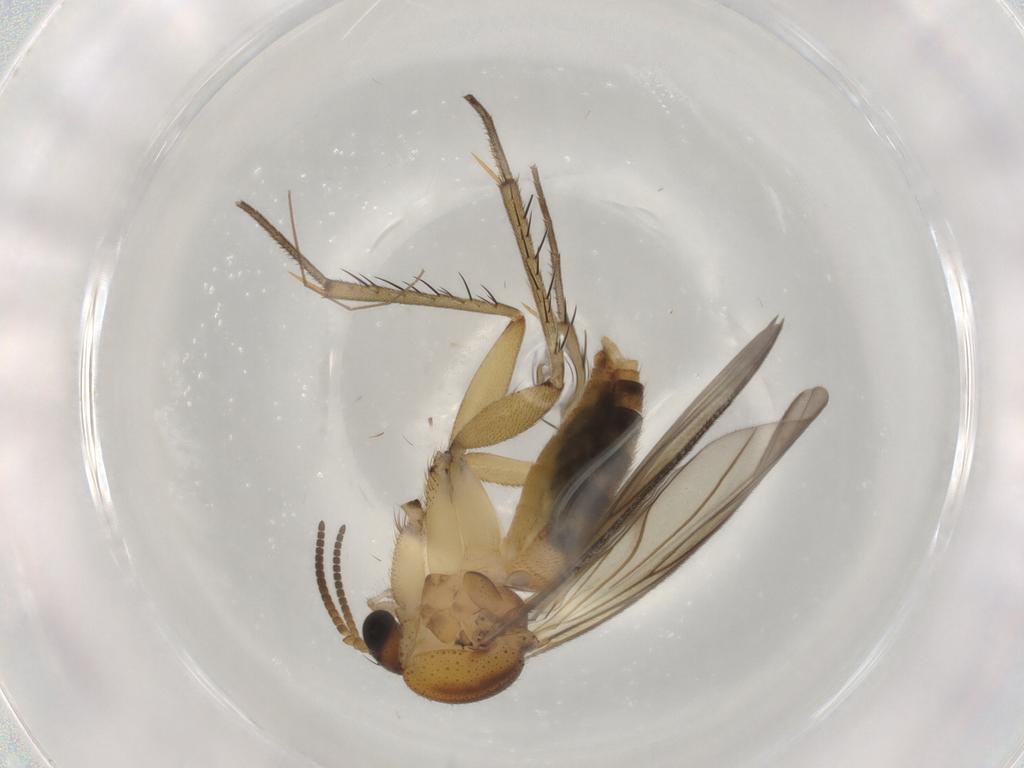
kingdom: Animalia
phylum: Arthropoda
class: Insecta
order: Diptera
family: Mycetophilidae
